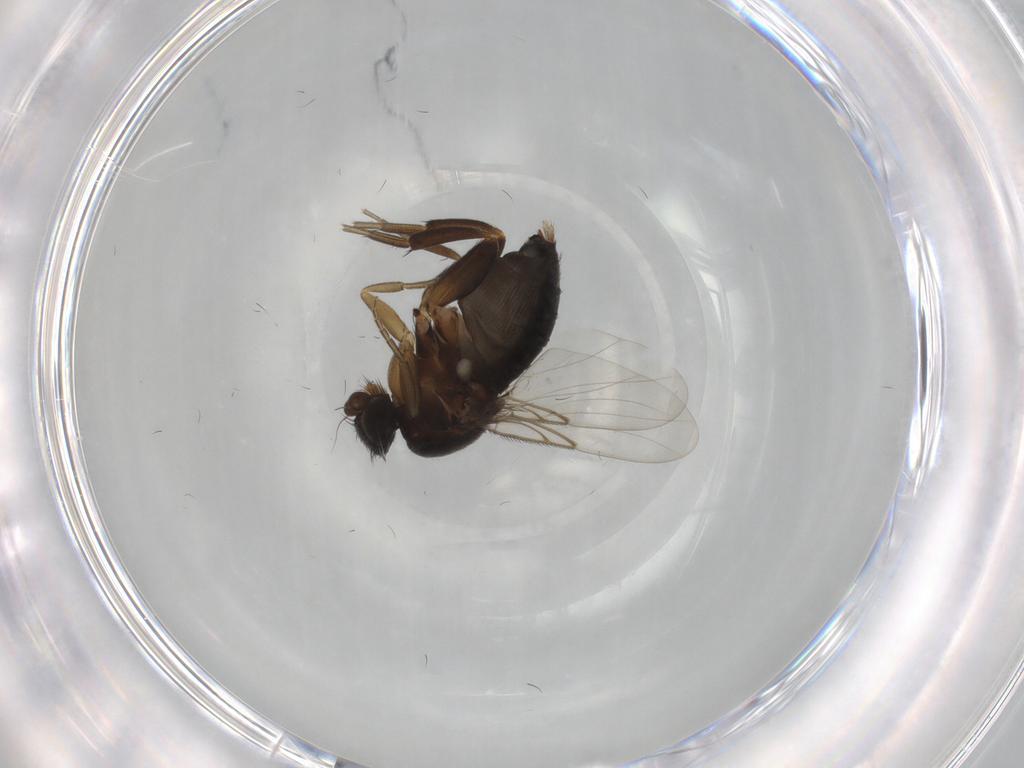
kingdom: Animalia
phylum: Arthropoda
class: Insecta
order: Diptera
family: Phoridae
